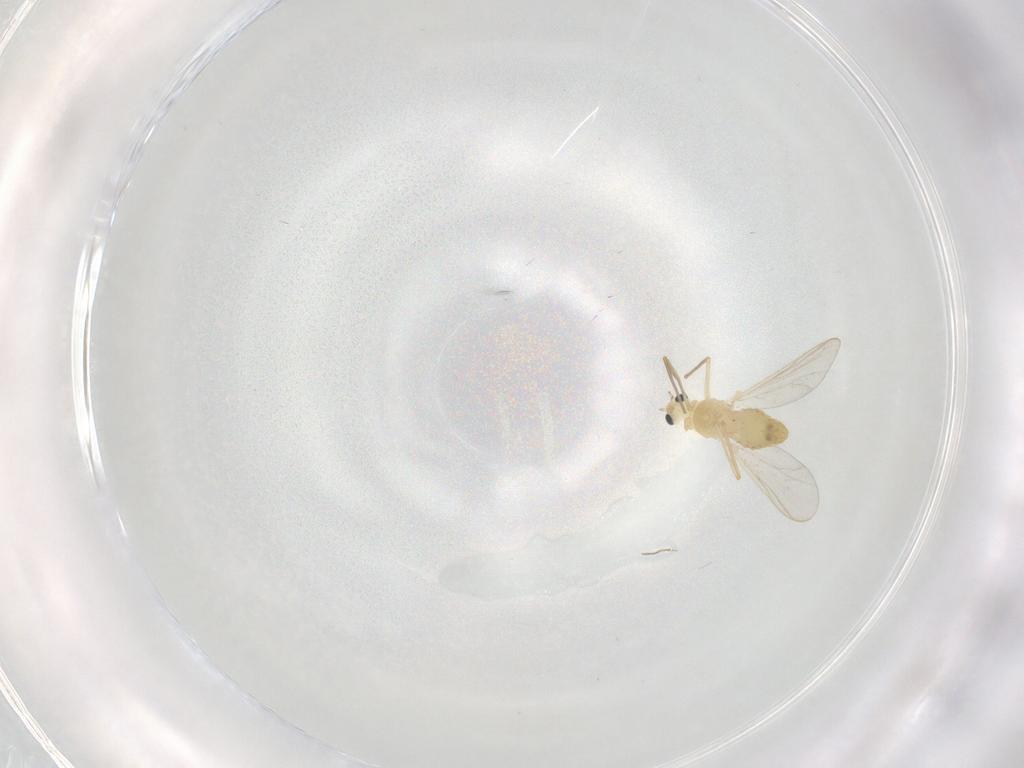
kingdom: Animalia
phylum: Arthropoda
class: Insecta
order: Diptera
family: Chironomidae
